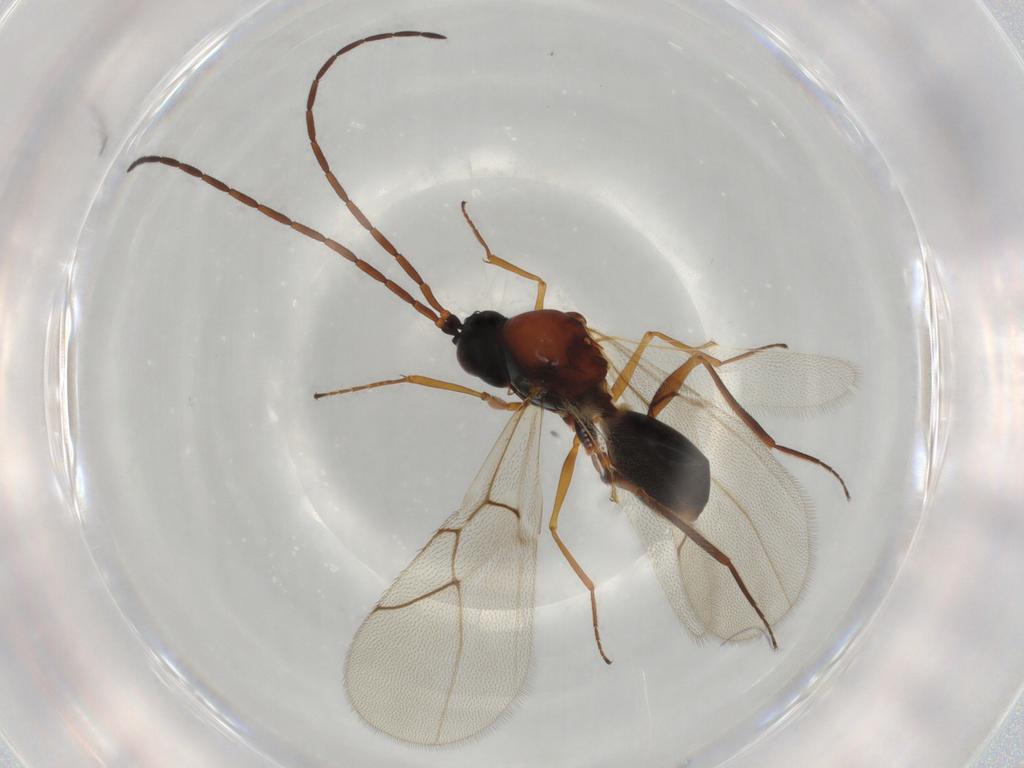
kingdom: Animalia
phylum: Arthropoda
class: Insecta
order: Hymenoptera
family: Figitidae
